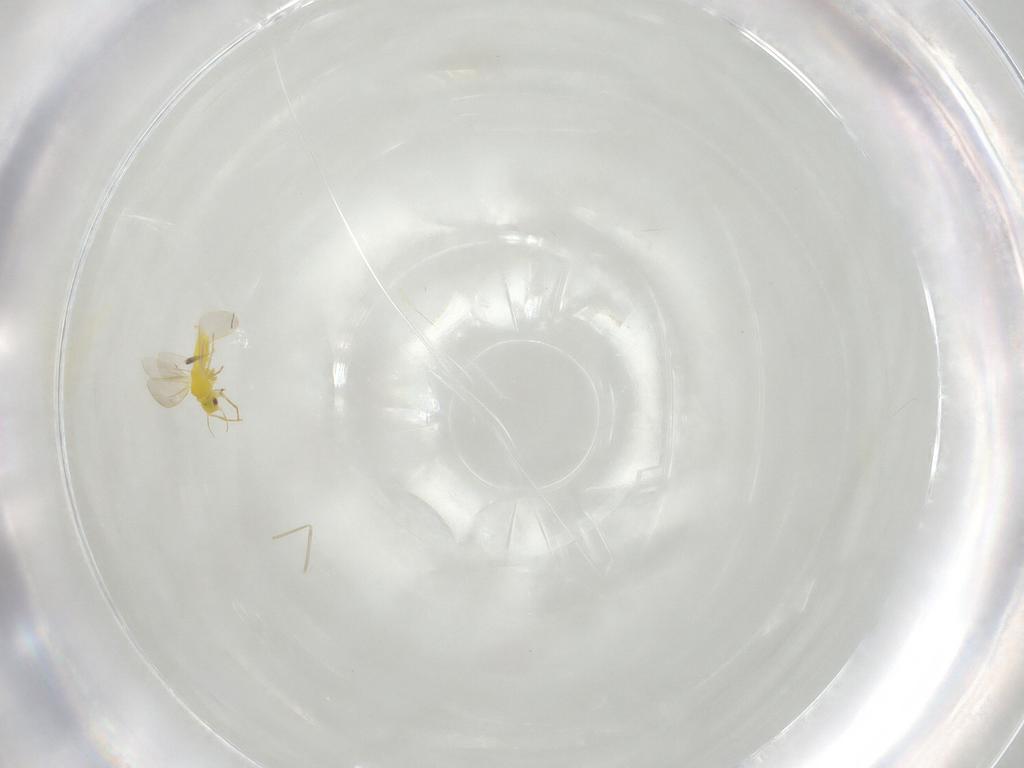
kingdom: Animalia
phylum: Arthropoda
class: Insecta
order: Hemiptera
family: Aleyrodidae
